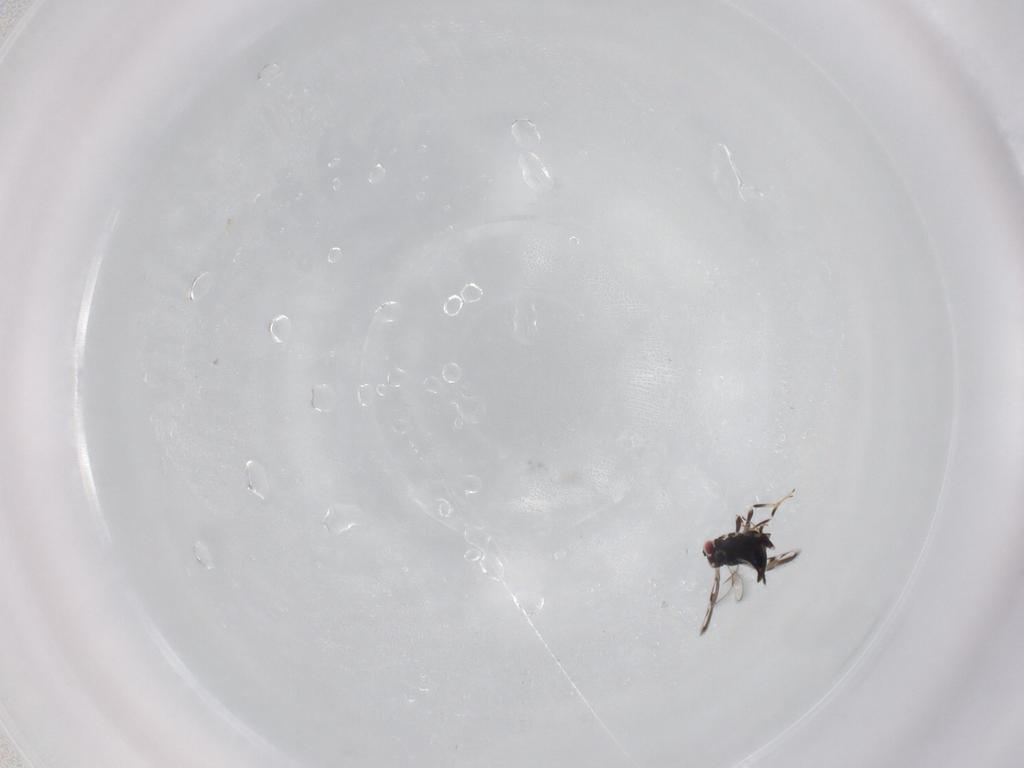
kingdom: Animalia
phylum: Arthropoda
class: Insecta
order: Hymenoptera
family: Azotidae
